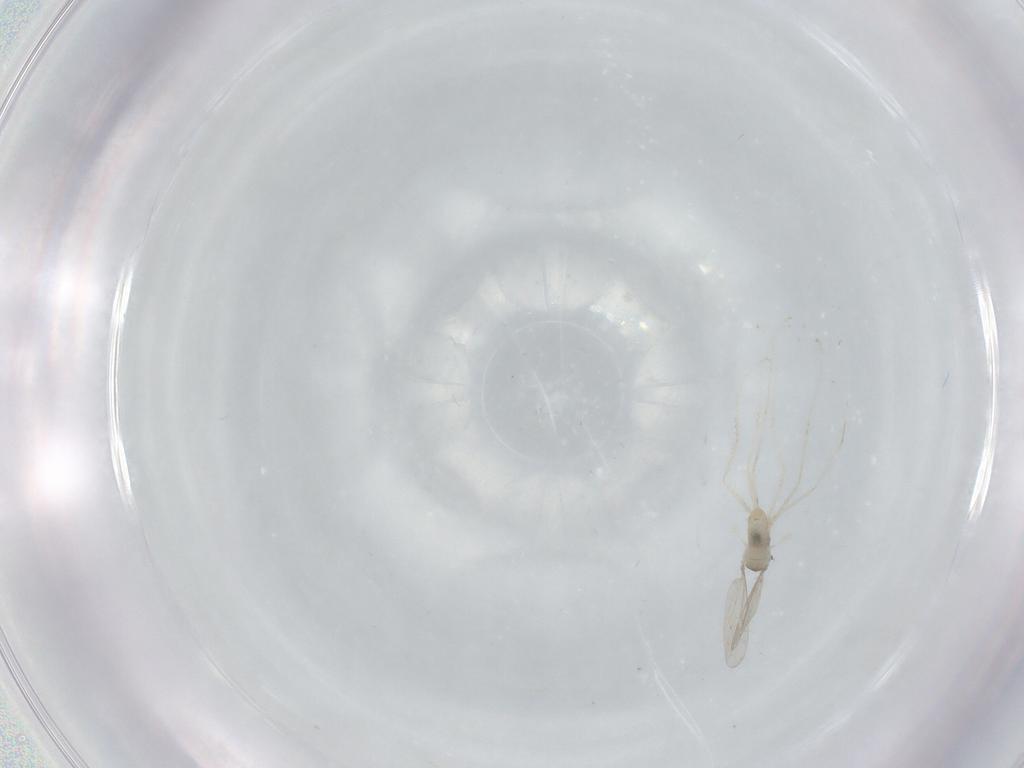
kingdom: Animalia
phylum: Arthropoda
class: Insecta
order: Diptera
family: Cecidomyiidae
